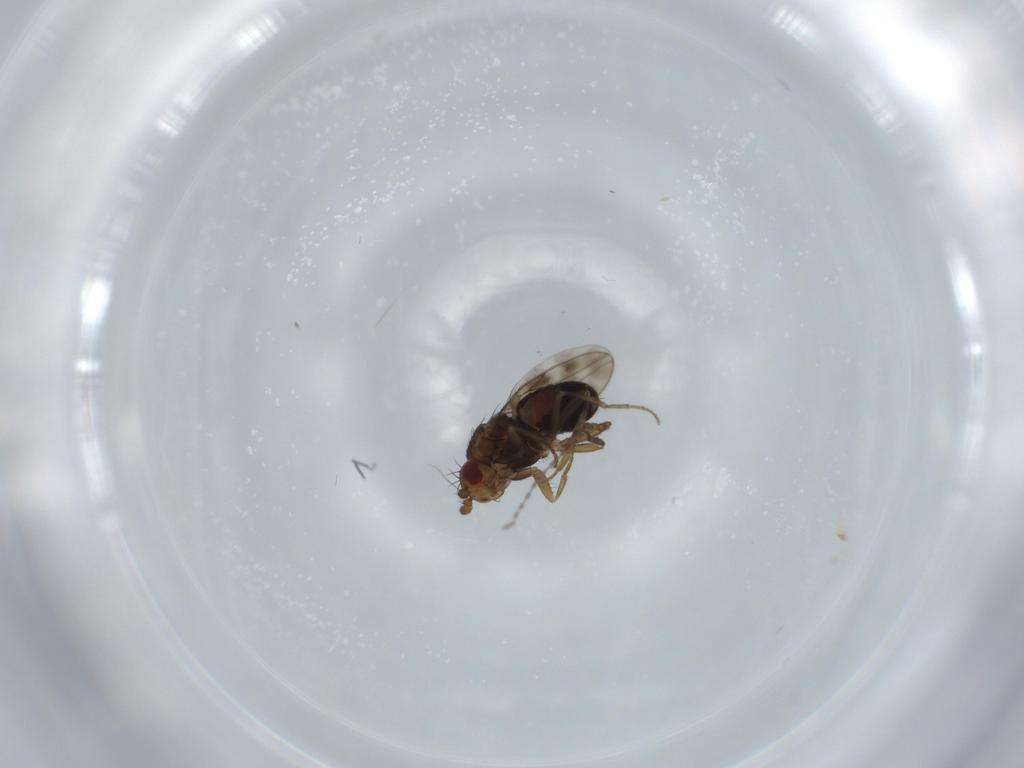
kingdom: Animalia
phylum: Arthropoda
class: Insecta
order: Diptera
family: Sphaeroceridae
